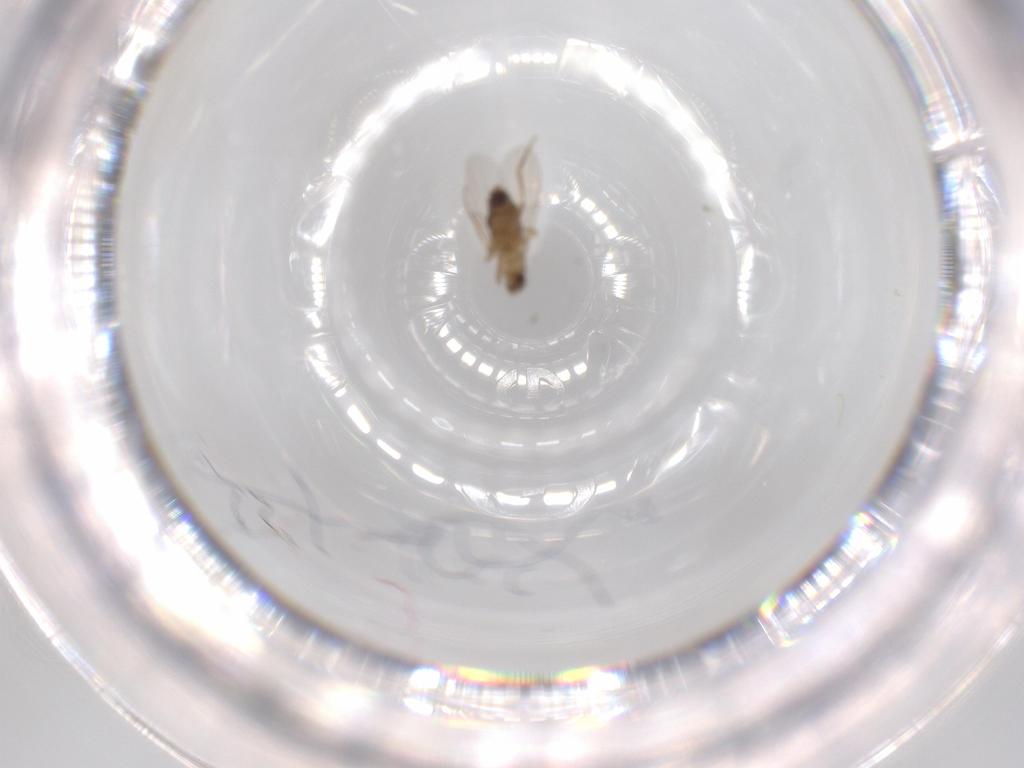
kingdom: Animalia
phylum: Arthropoda
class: Insecta
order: Diptera
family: Phoridae
